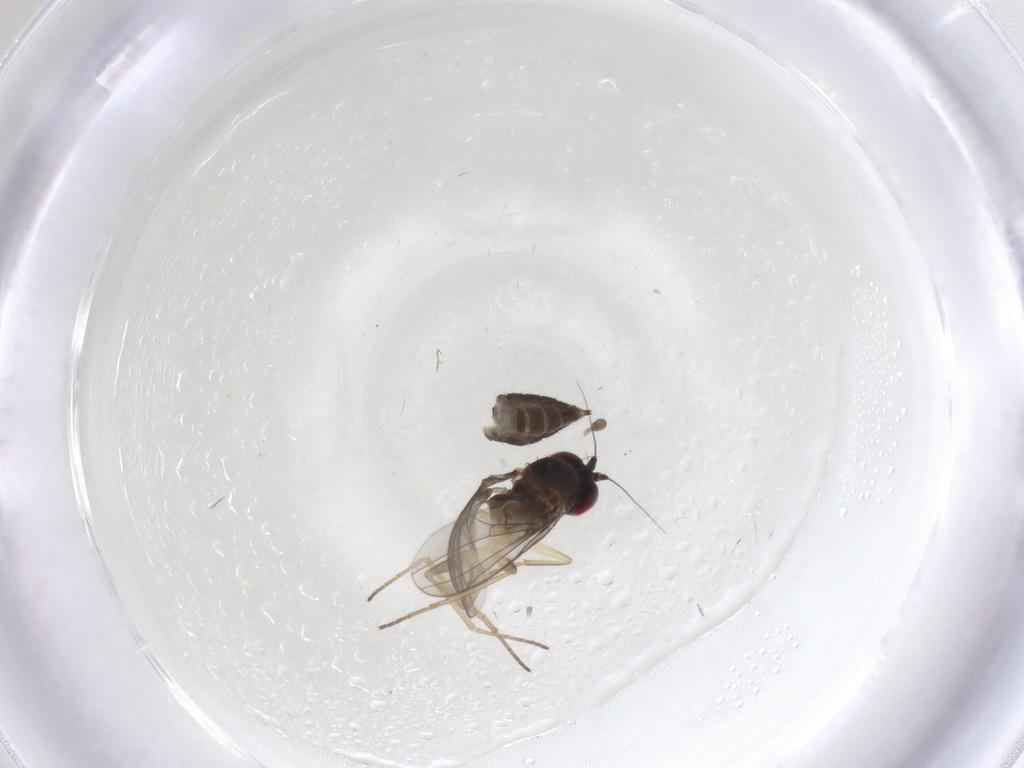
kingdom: Animalia
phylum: Arthropoda
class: Insecta
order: Diptera
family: Dolichopodidae
